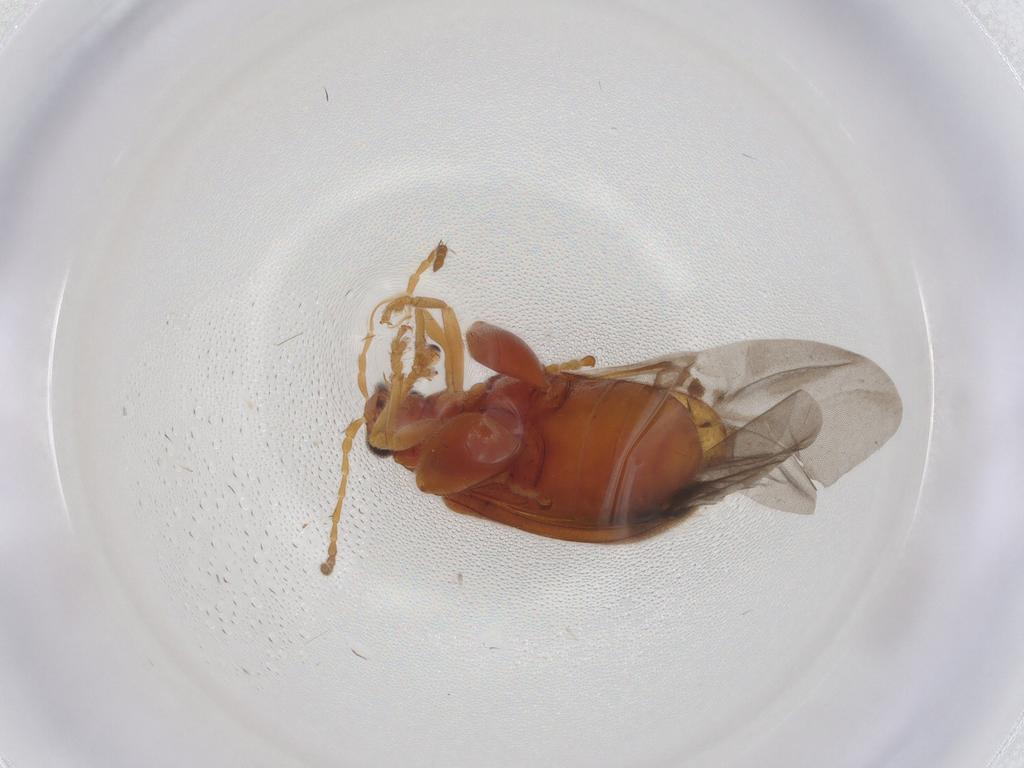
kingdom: Animalia
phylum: Arthropoda
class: Insecta
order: Coleoptera
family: Chrysomelidae
